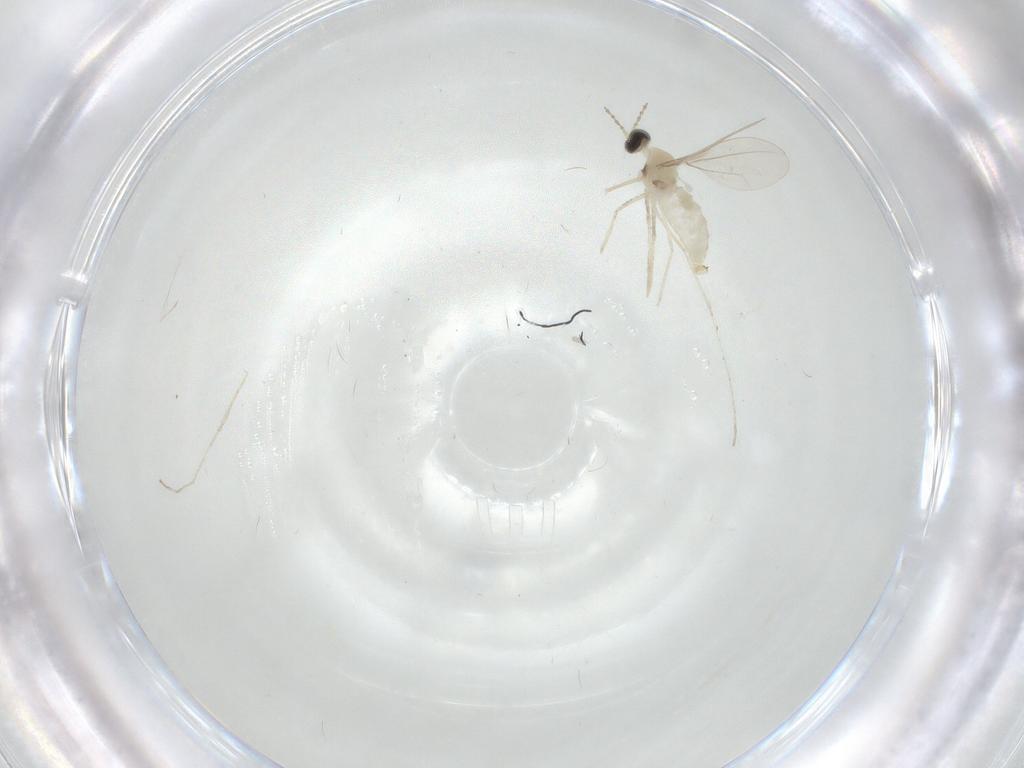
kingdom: Animalia
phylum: Arthropoda
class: Insecta
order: Diptera
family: Cecidomyiidae
